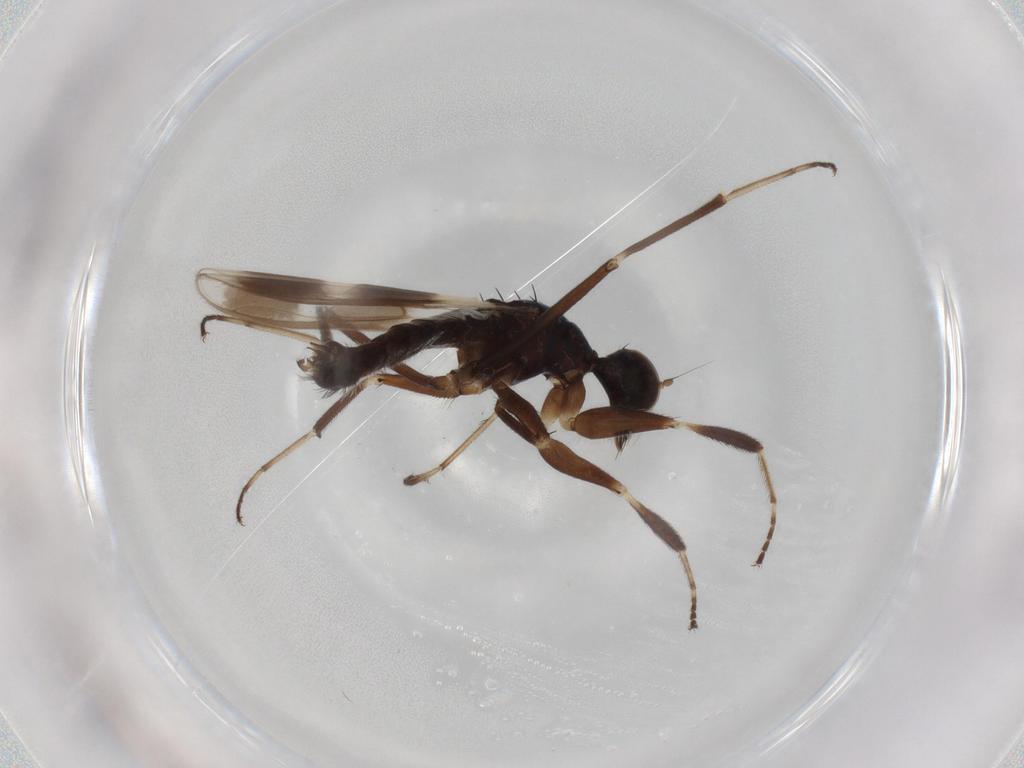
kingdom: Animalia
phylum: Arthropoda
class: Insecta
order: Diptera
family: Hybotidae
